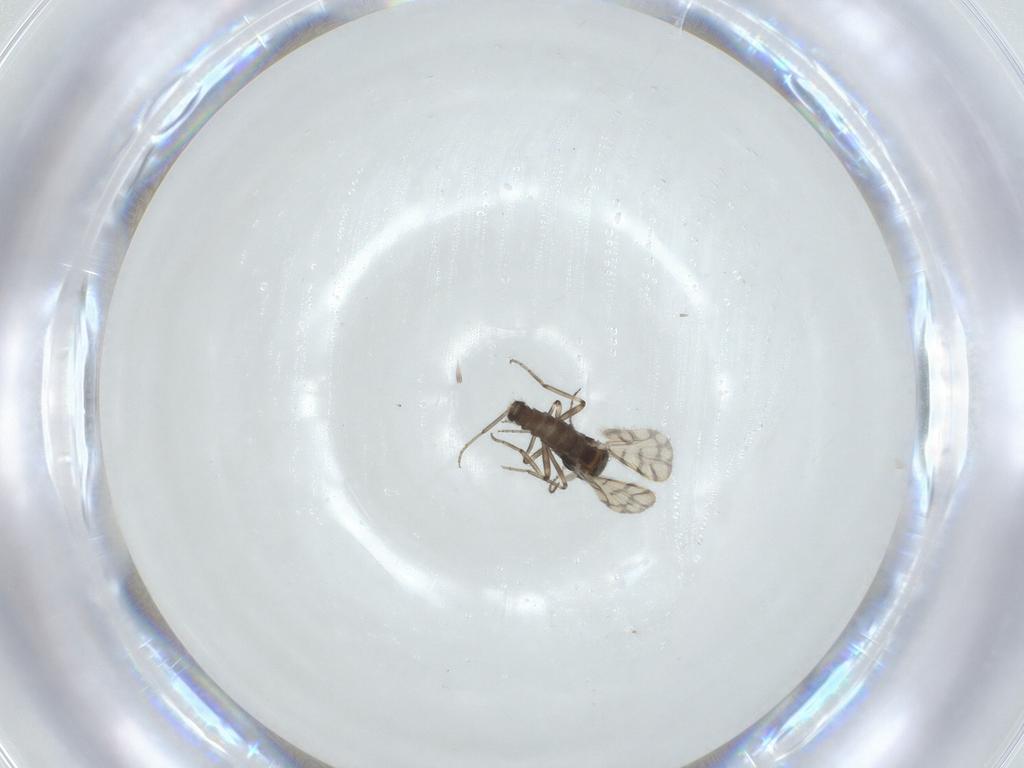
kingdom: Animalia
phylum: Arthropoda
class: Insecta
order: Diptera
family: Ceratopogonidae
